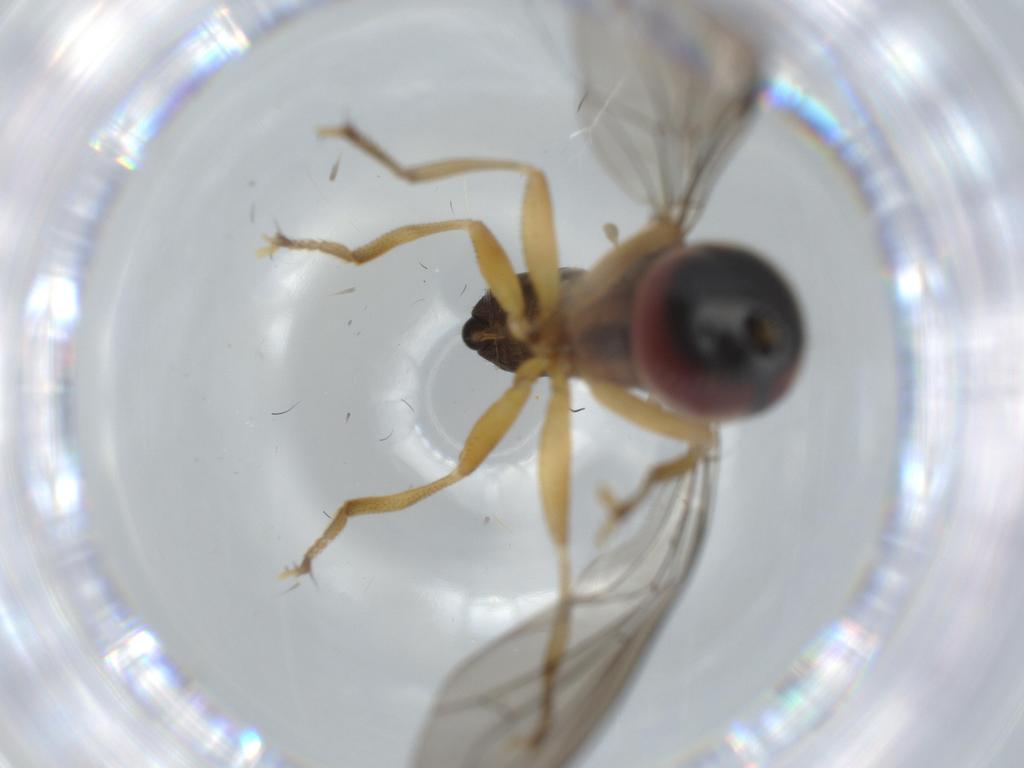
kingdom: Animalia
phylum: Arthropoda
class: Insecta
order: Diptera
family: Pipunculidae
